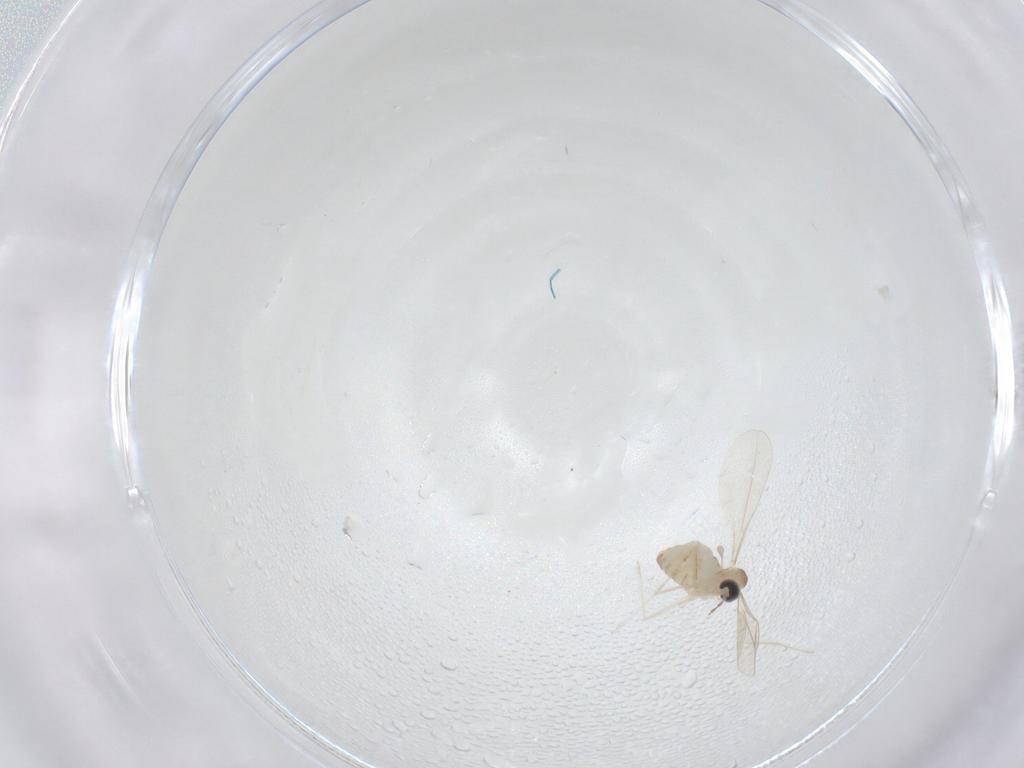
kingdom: Animalia
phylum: Arthropoda
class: Insecta
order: Diptera
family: Cecidomyiidae
